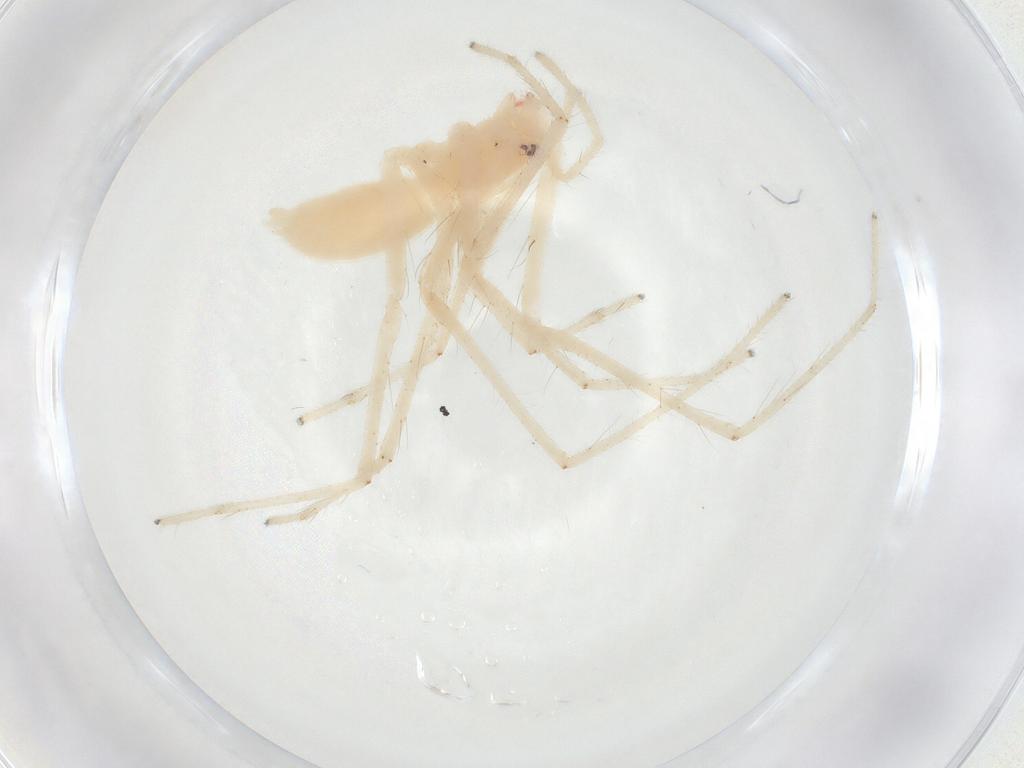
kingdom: Animalia
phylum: Arthropoda
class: Arachnida
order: Araneae
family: Anyphaenidae
